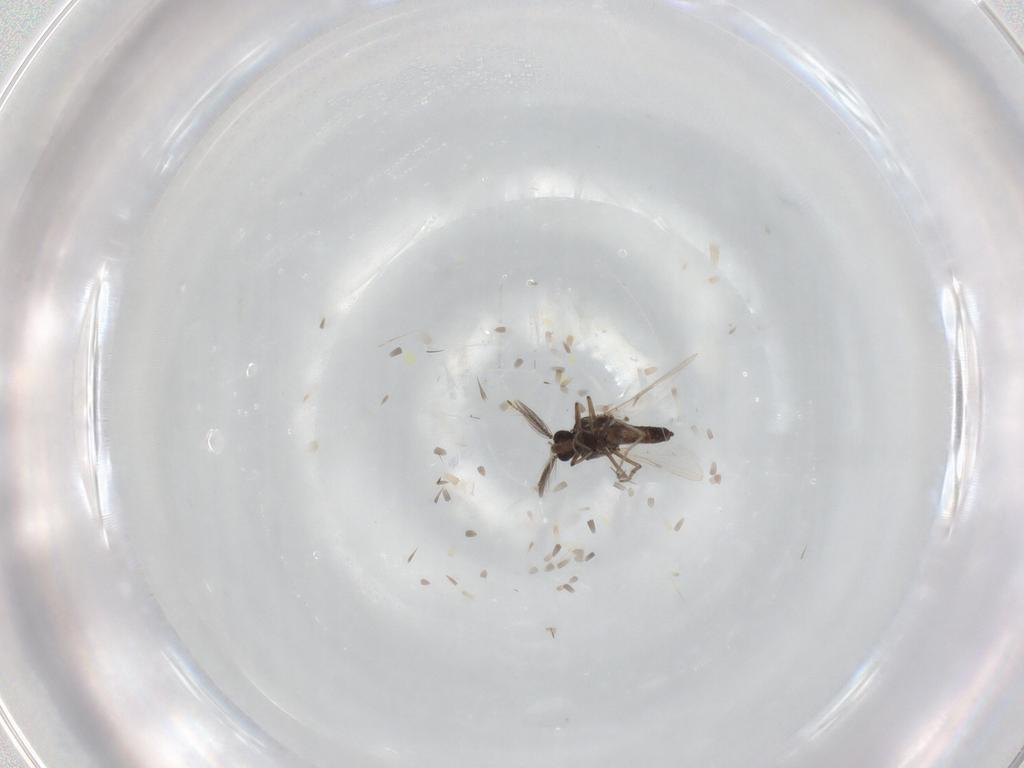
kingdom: Animalia
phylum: Arthropoda
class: Insecta
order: Diptera
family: Ceratopogonidae
